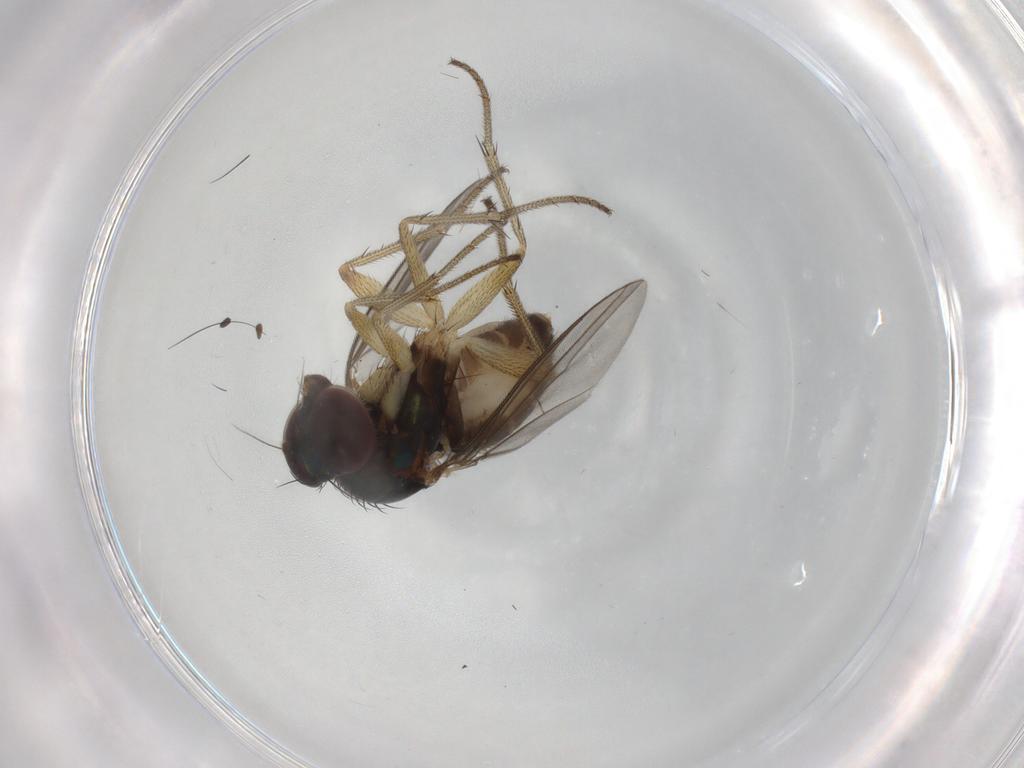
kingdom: Animalia
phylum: Arthropoda
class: Insecta
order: Diptera
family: Dolichopodidae
